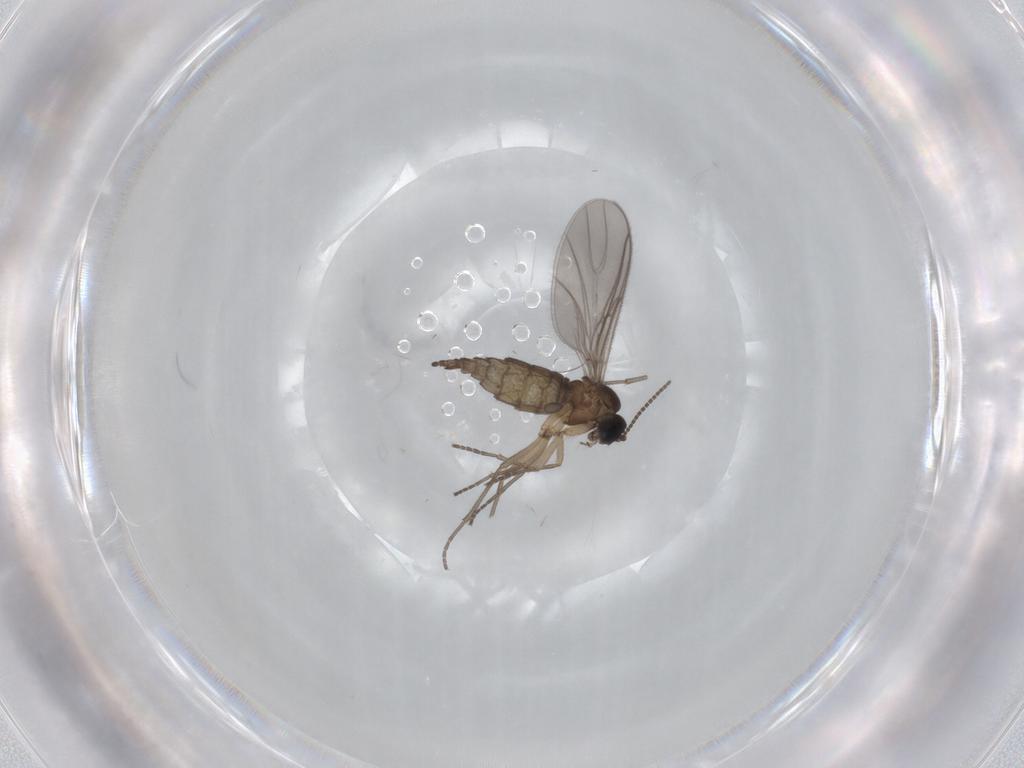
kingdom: Animalia
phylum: Arthropoda
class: Insecta
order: Diptera
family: Sciaridae
